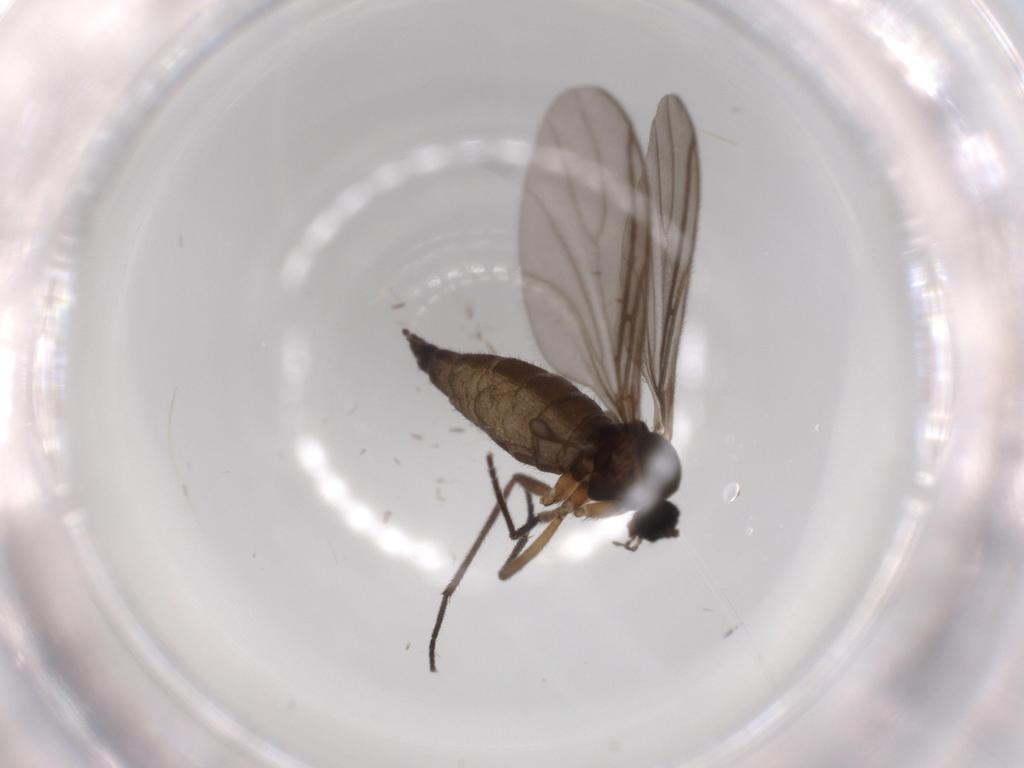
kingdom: Animalia
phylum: Arthropoda
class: Insecta
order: Diptera
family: Sciaridae
